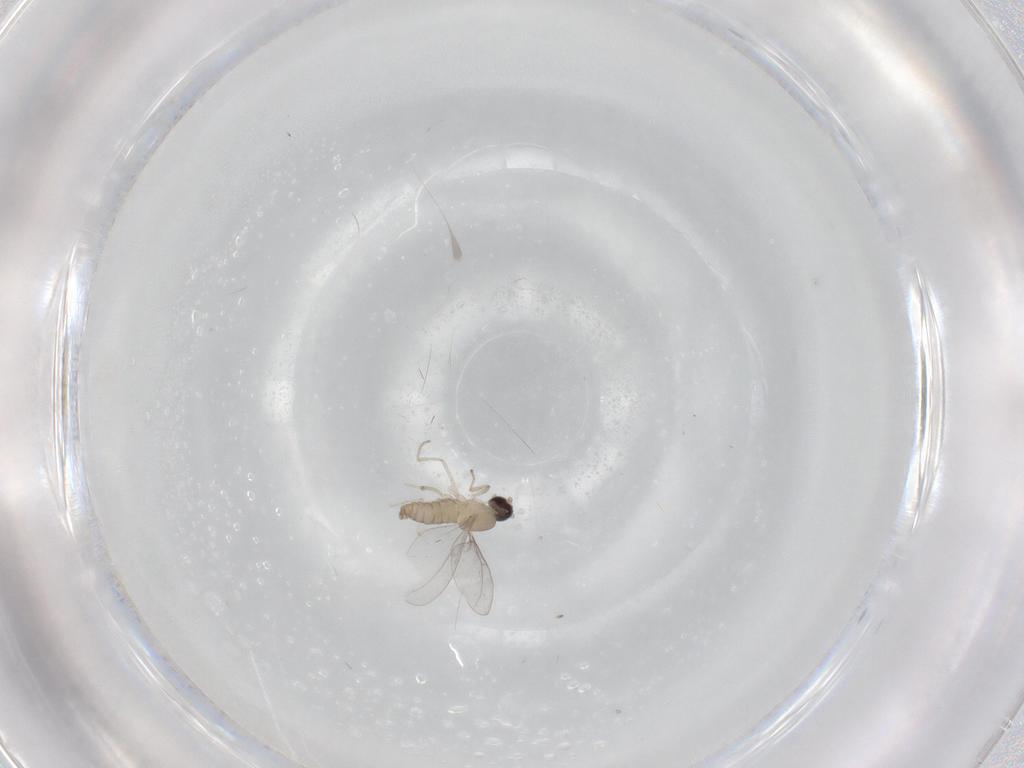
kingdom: Animalia
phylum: Arthropoda
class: Insecta
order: Diptera
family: Cecidomyiidae
